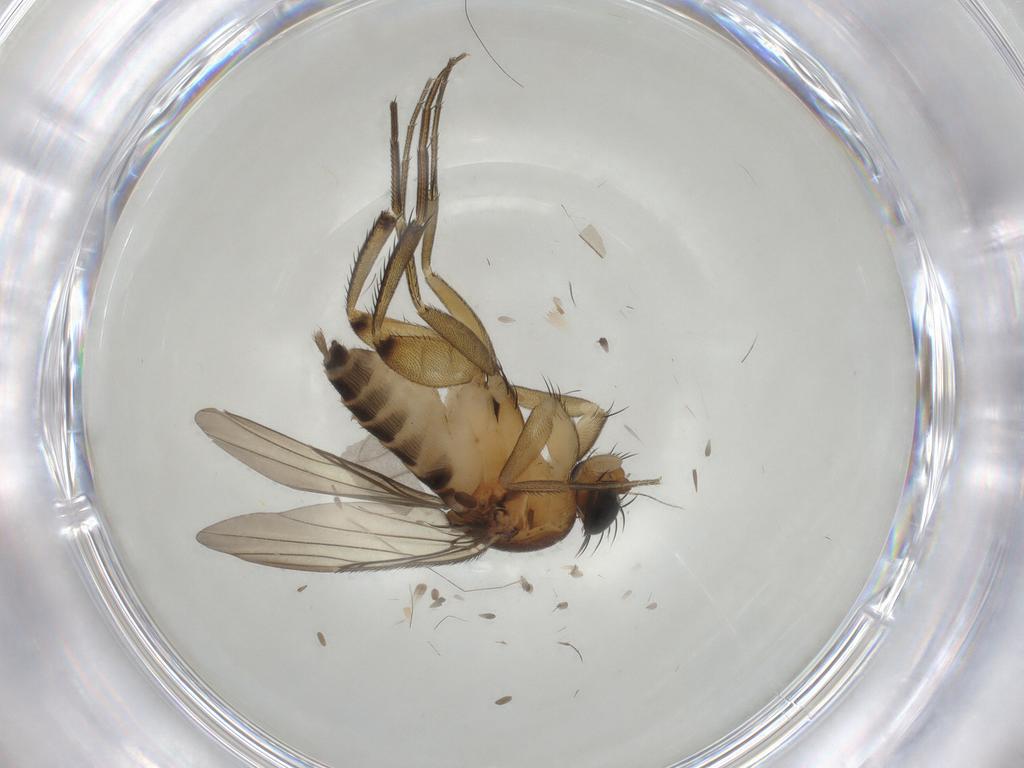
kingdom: Animalia
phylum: Arthropoda
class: Insecta
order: Diptera
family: Phoridae
